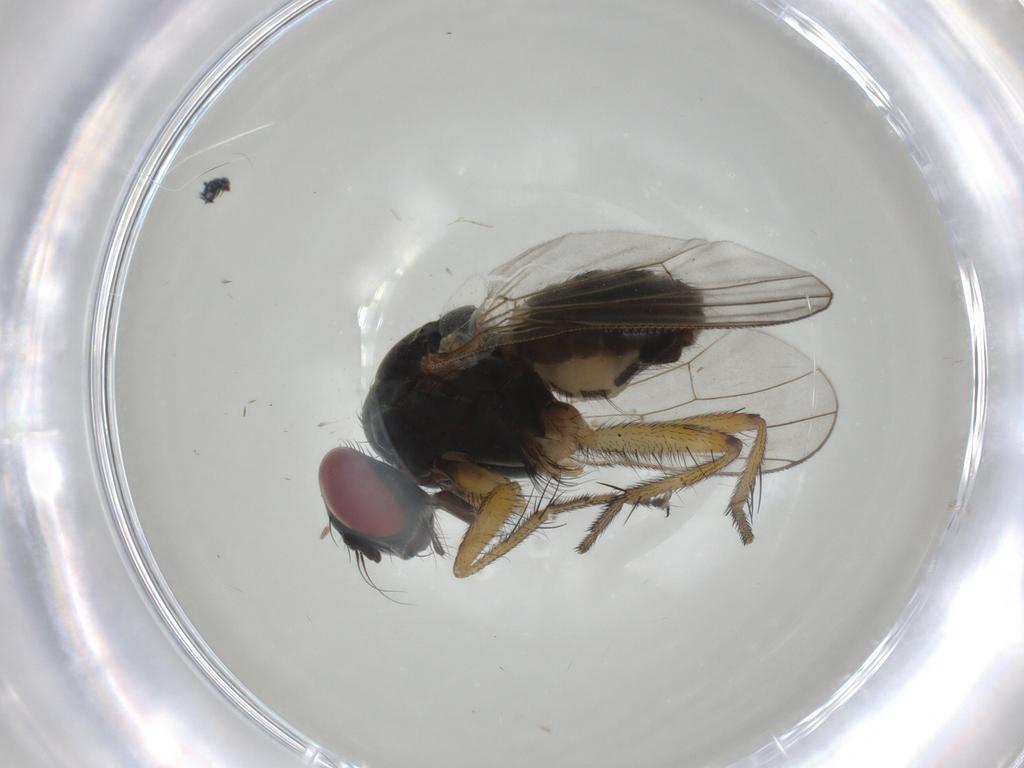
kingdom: Animalia
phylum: Arthropoda
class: Insecta
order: Diptera
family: Muscidae
